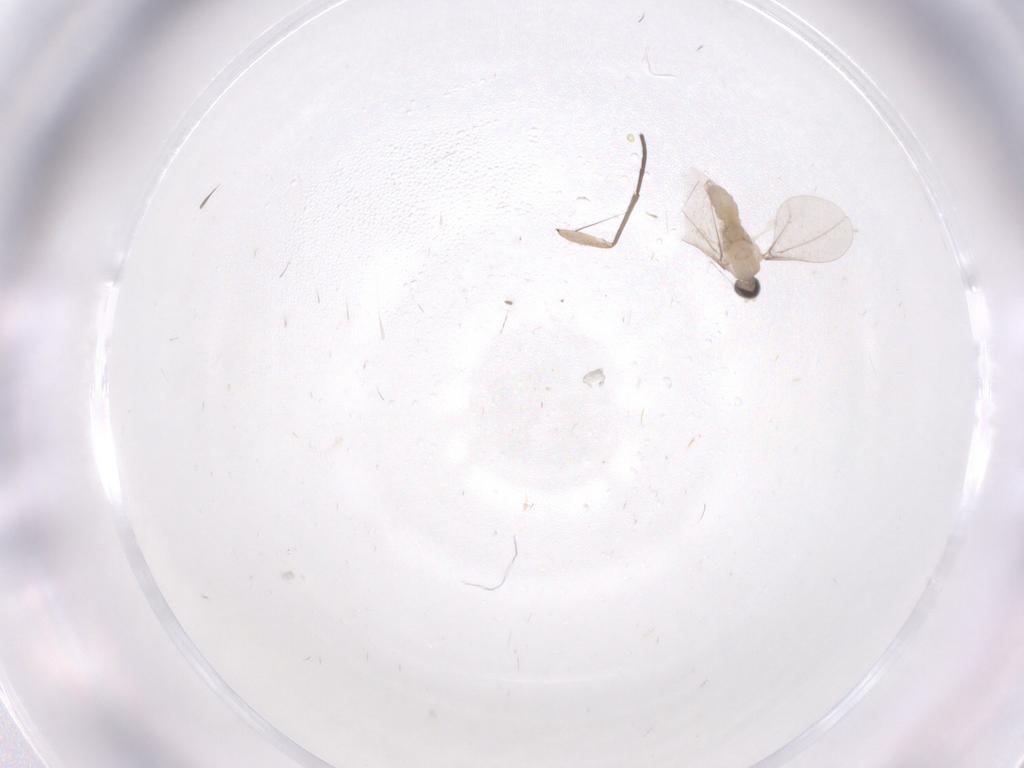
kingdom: Animalia
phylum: Arthropoda
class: Insecta
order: Diptera
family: Cecidomyiidae
